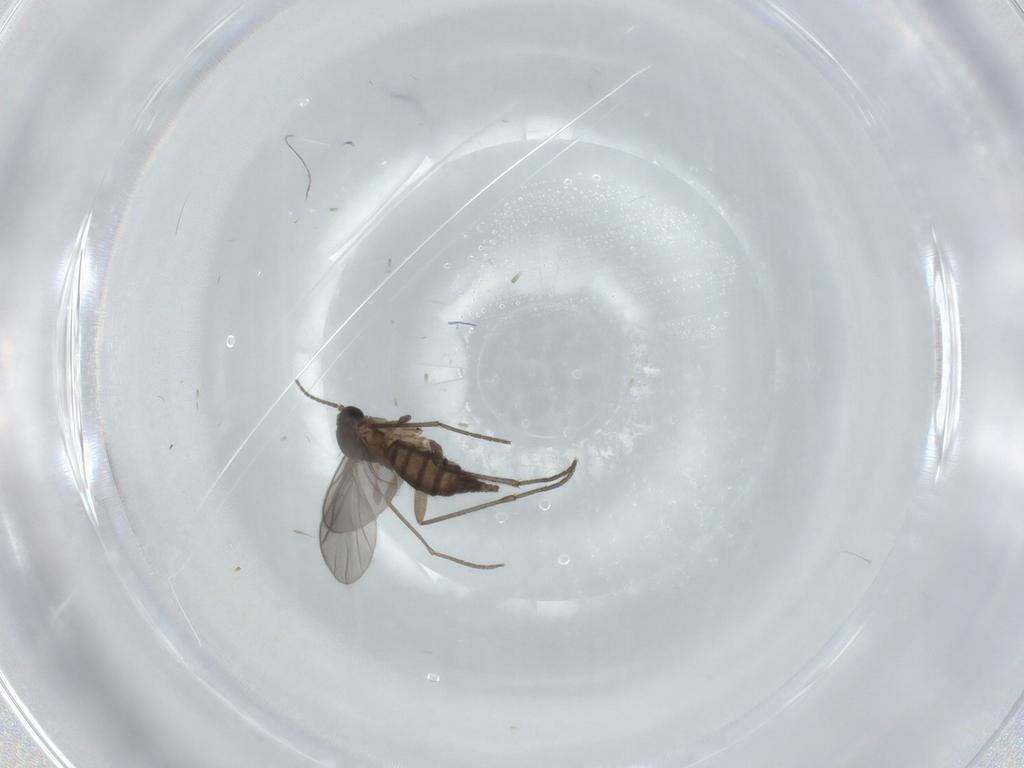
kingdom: Animalia
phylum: Arthropoda
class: Insecta
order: Diptera
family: Sciaridae
